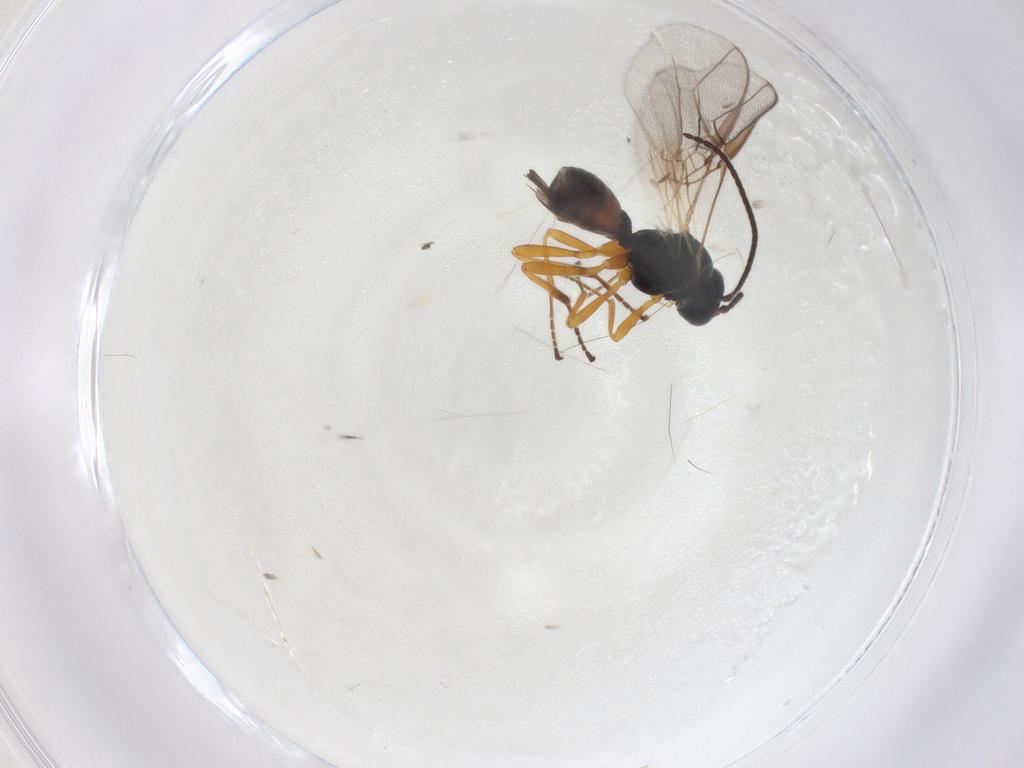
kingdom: Animalia
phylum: Arthropoda
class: Insecta
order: Hymenoptera
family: Braconidae
